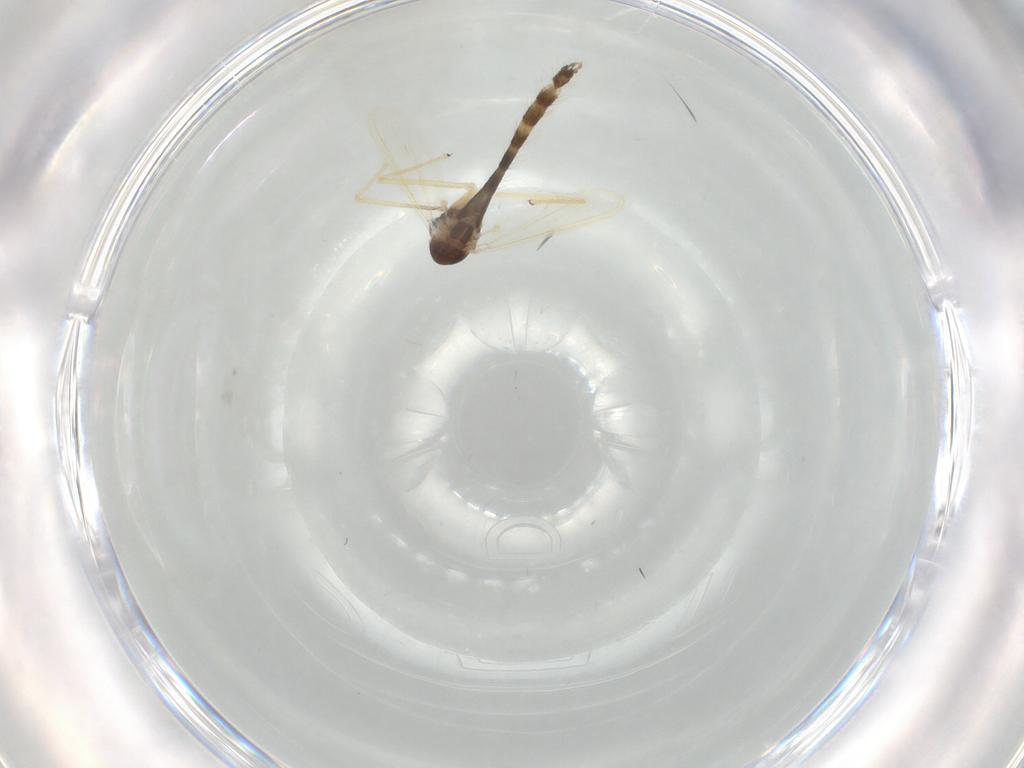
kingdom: Animalia
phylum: Arthropoda
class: Insecta
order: Diptera
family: Chironomidae
